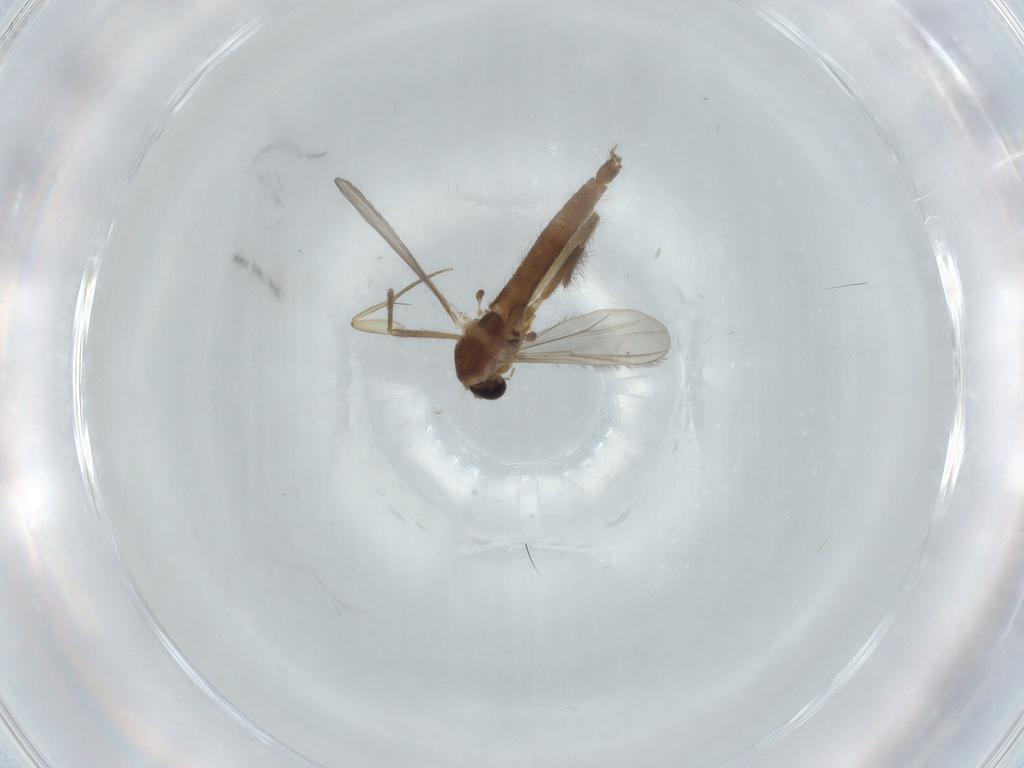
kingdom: Animalia
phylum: Arthropoda
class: Insecta
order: Diptera
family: Chironomidae
